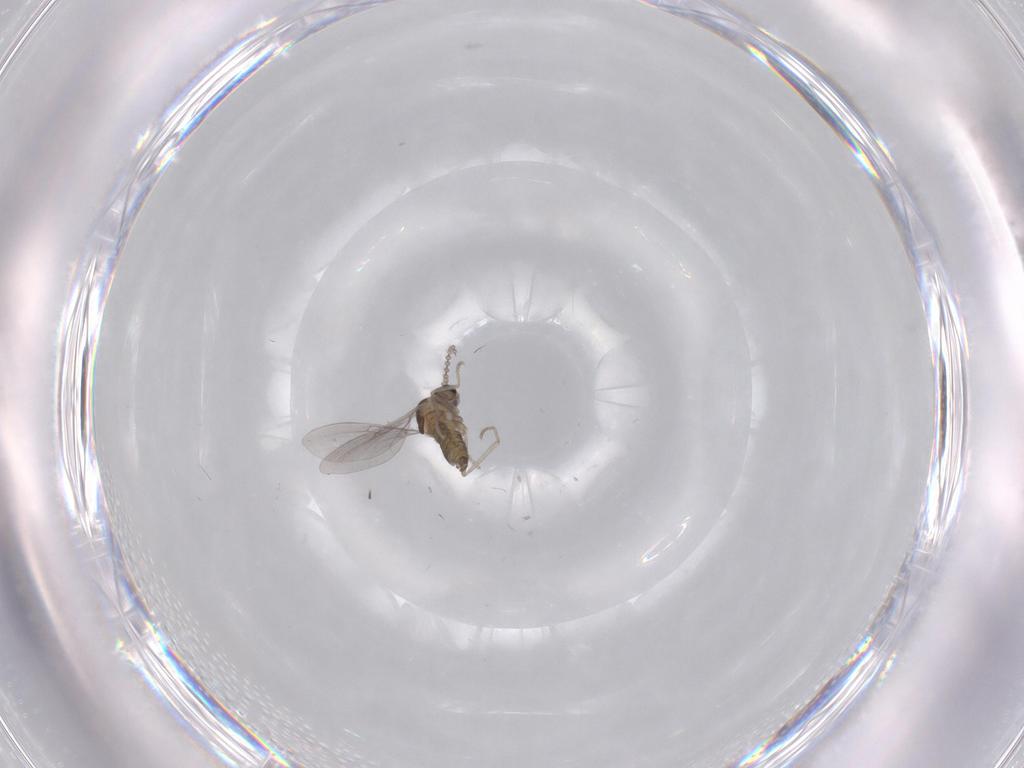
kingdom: Animalia
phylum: Arthropoda
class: Insecta
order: Diptera
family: Cecidomyiidae
